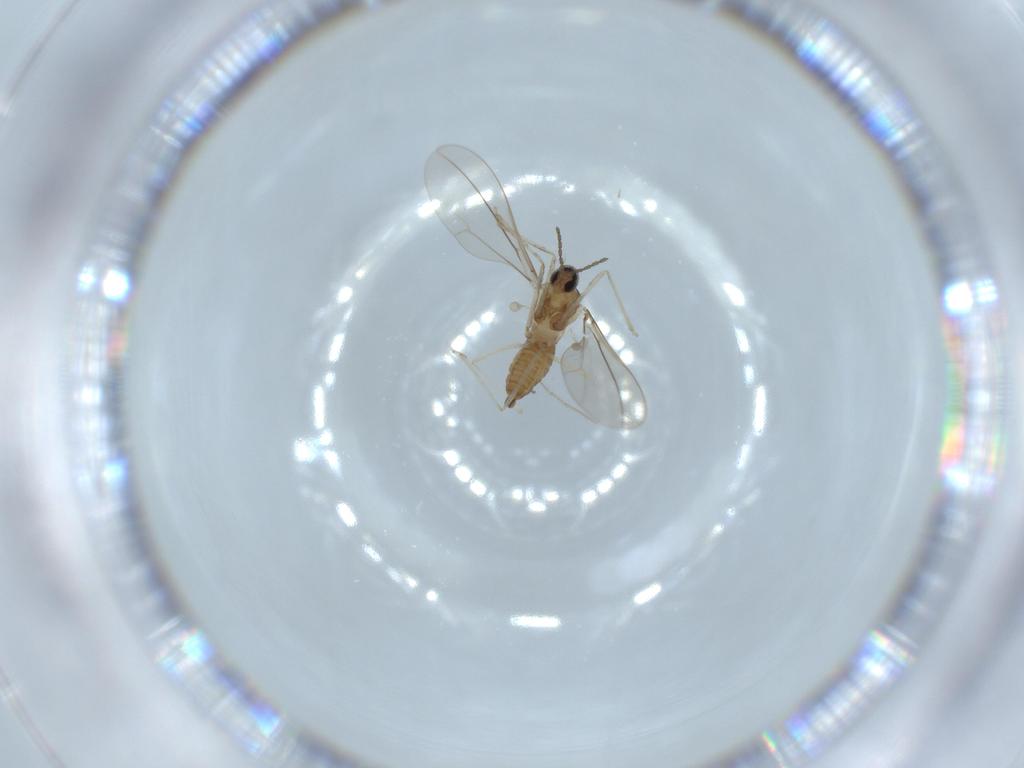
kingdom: Animalia
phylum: Arthropoda
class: Insecta
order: Diptera
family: Cecidomyiidae
